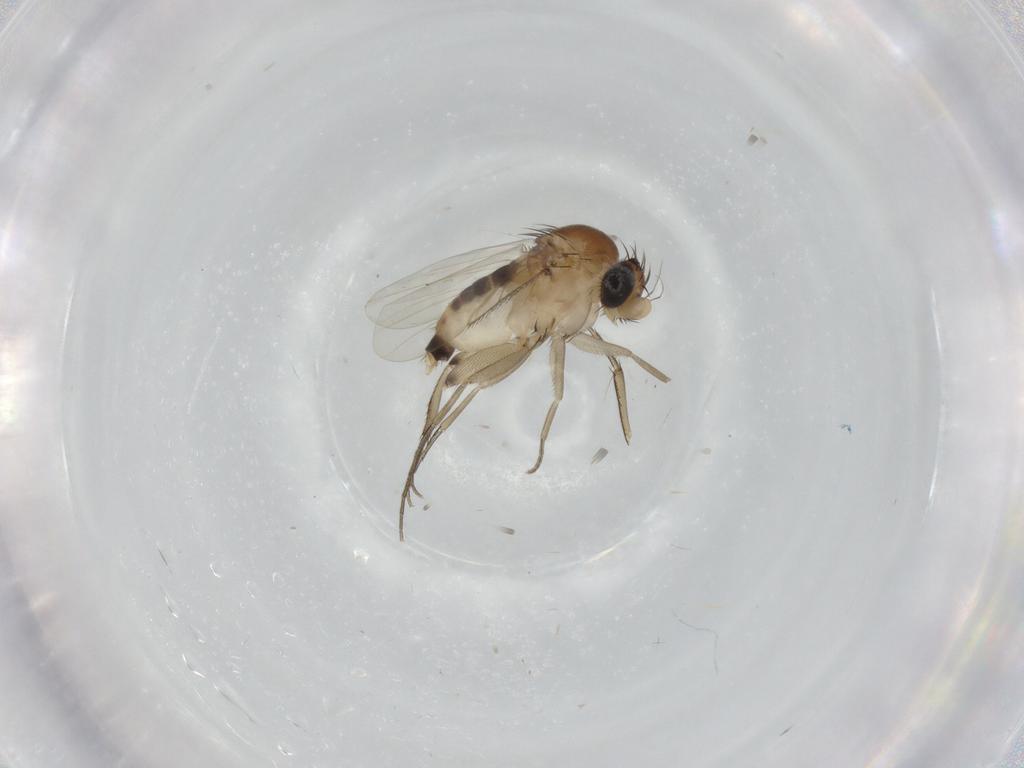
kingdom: Animalia
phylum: Arthropoda
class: Insecta
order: Diptera
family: Phoridae
